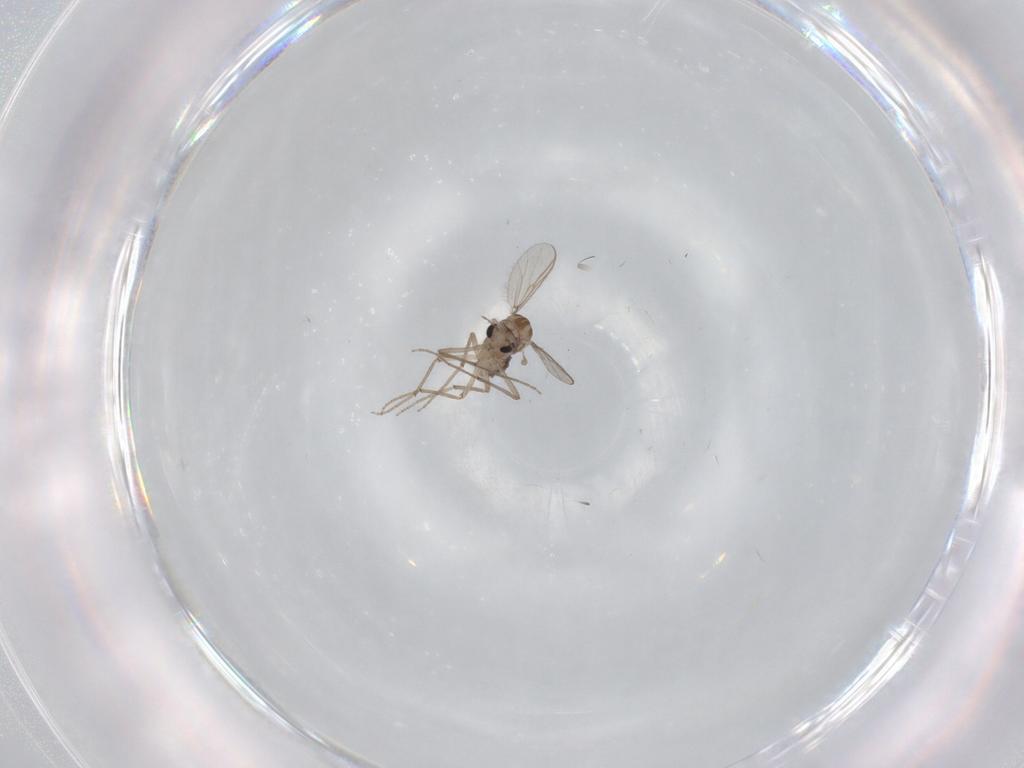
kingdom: Animalia
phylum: Arthropoda
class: Insecta
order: Diptera
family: Chironomidae
